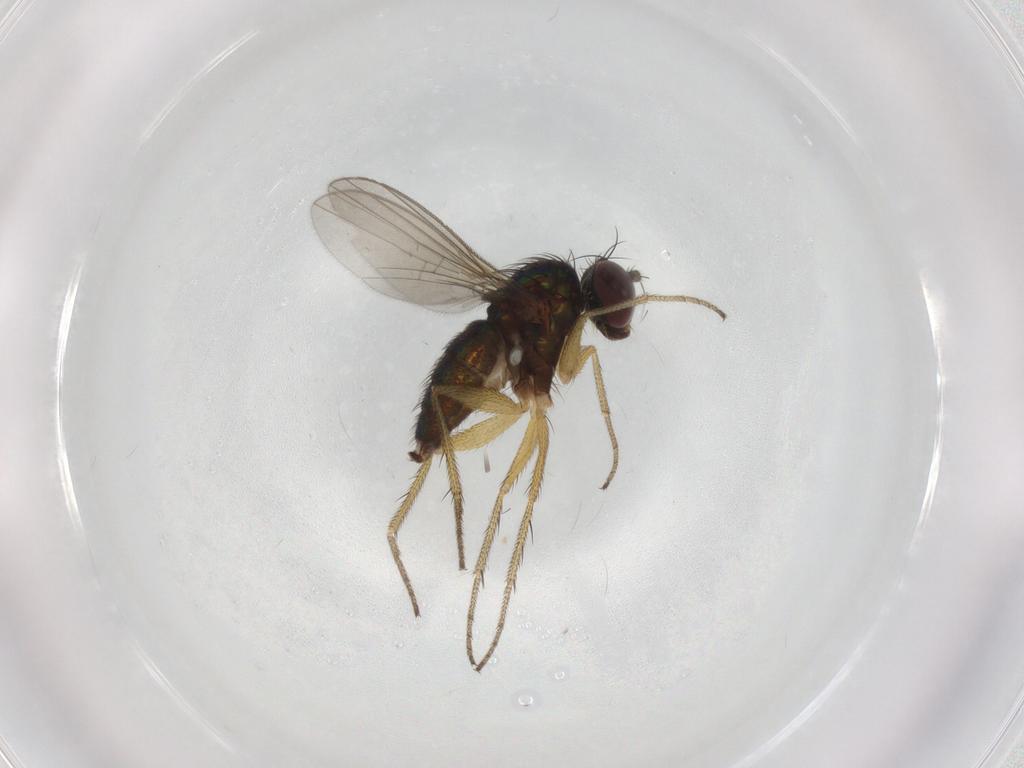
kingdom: Animalia
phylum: Arthropoda
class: Insecta
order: Diptera
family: Dolichopodidae
